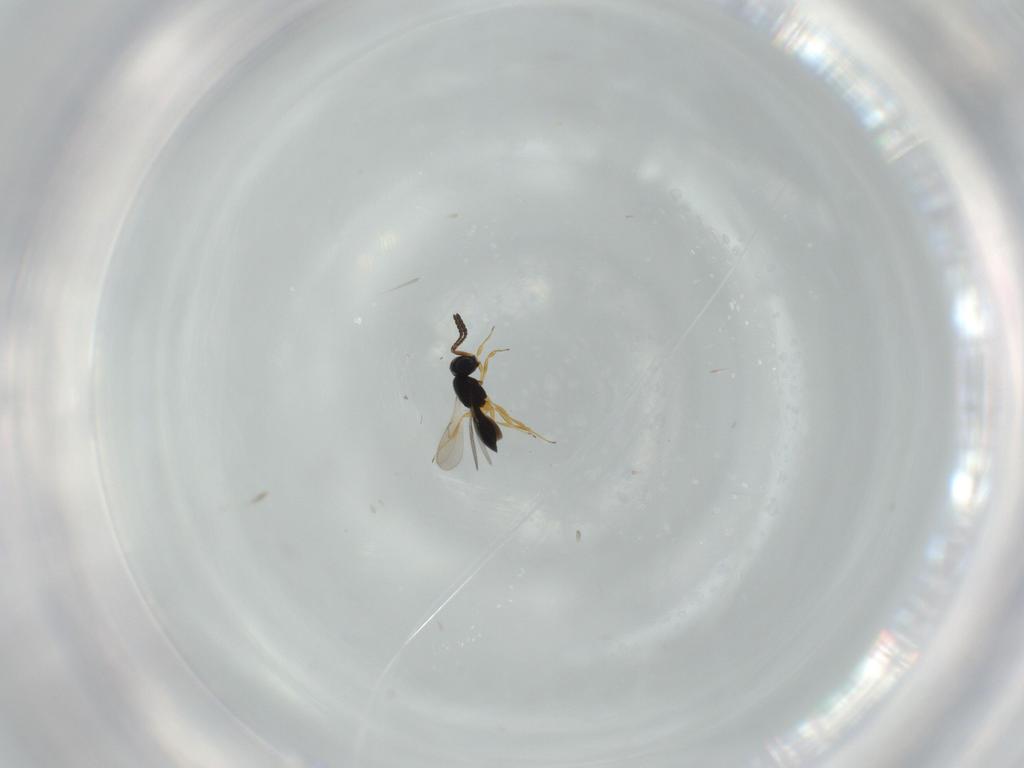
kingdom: Animalia
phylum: Arthropoda
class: Insecta
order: Hymenoptera
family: Scelionidae
